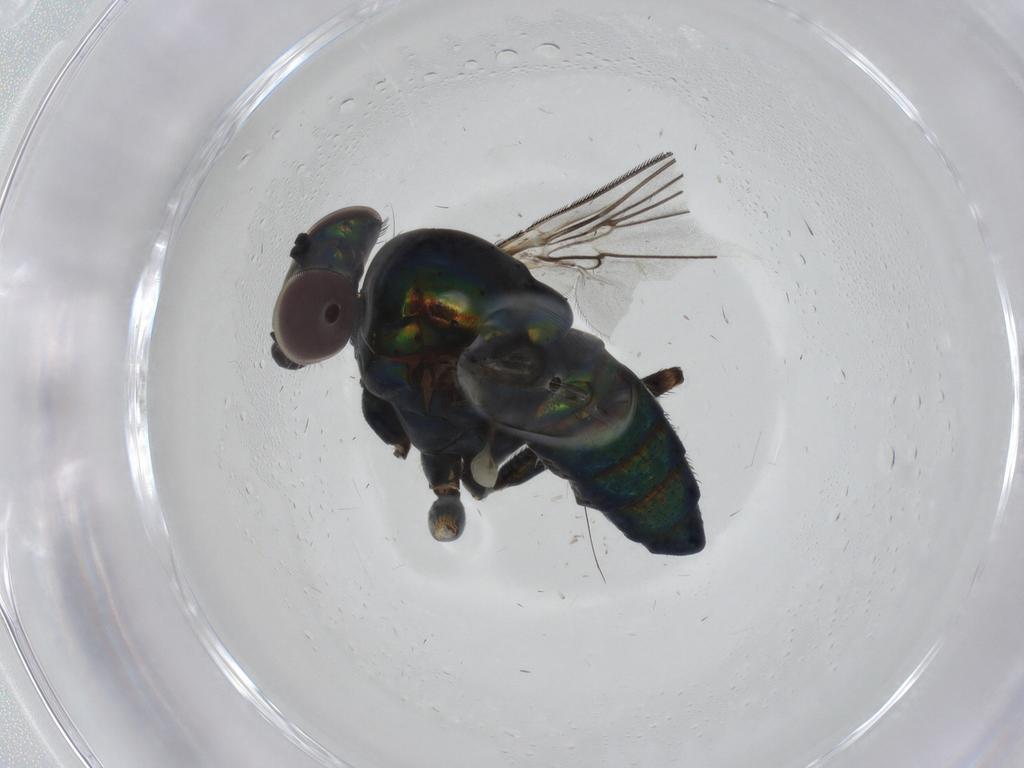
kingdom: Animalia
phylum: Arthropoda
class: Insecta
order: Diptera
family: Dolichopodidae
